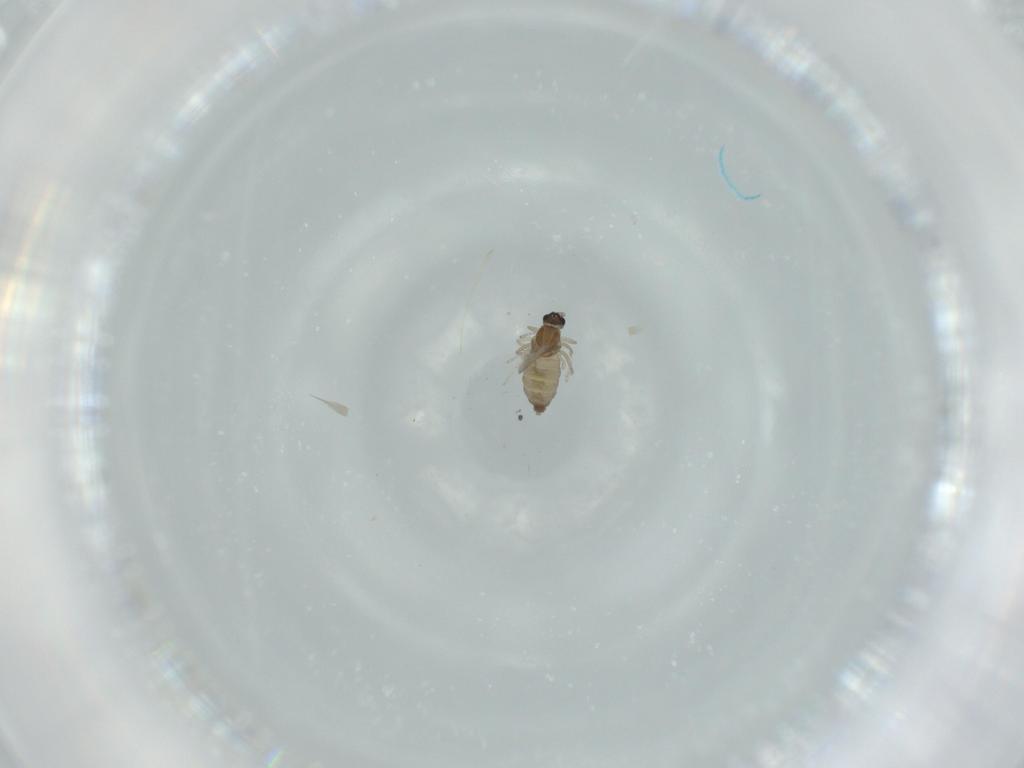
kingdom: Animalia
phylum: Arthropoda
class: Insecta
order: Diptera
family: Cecidomyiidae
